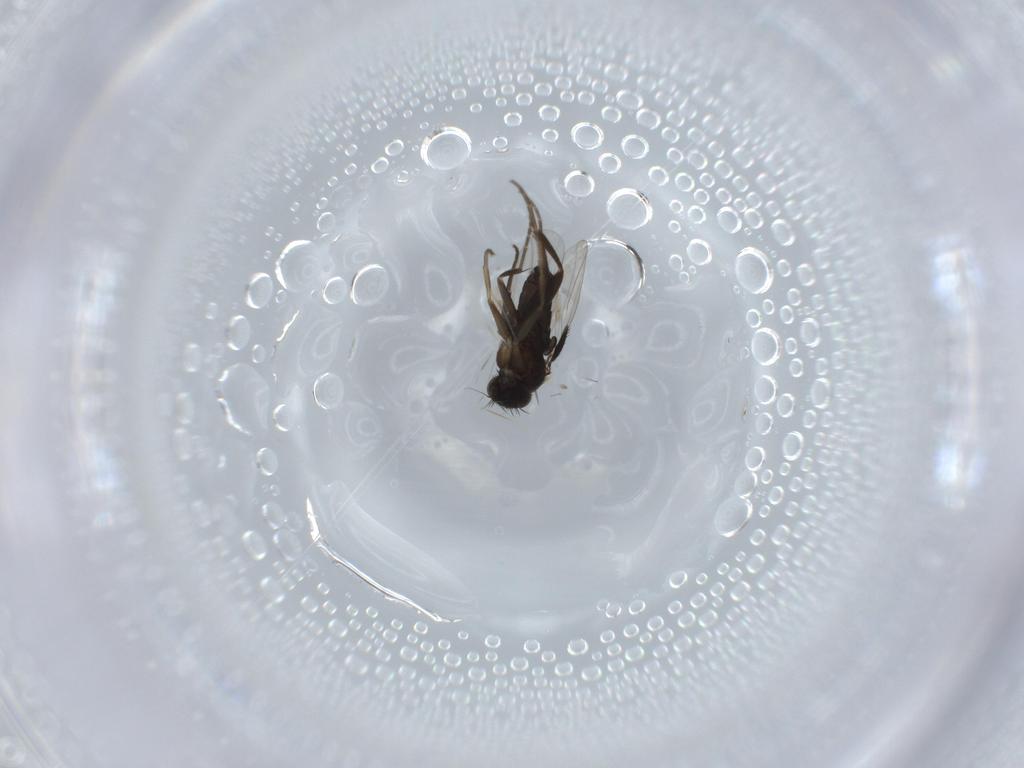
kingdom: Animalia
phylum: Arthropoda
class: Insecta
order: Diptera
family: Phoridae
